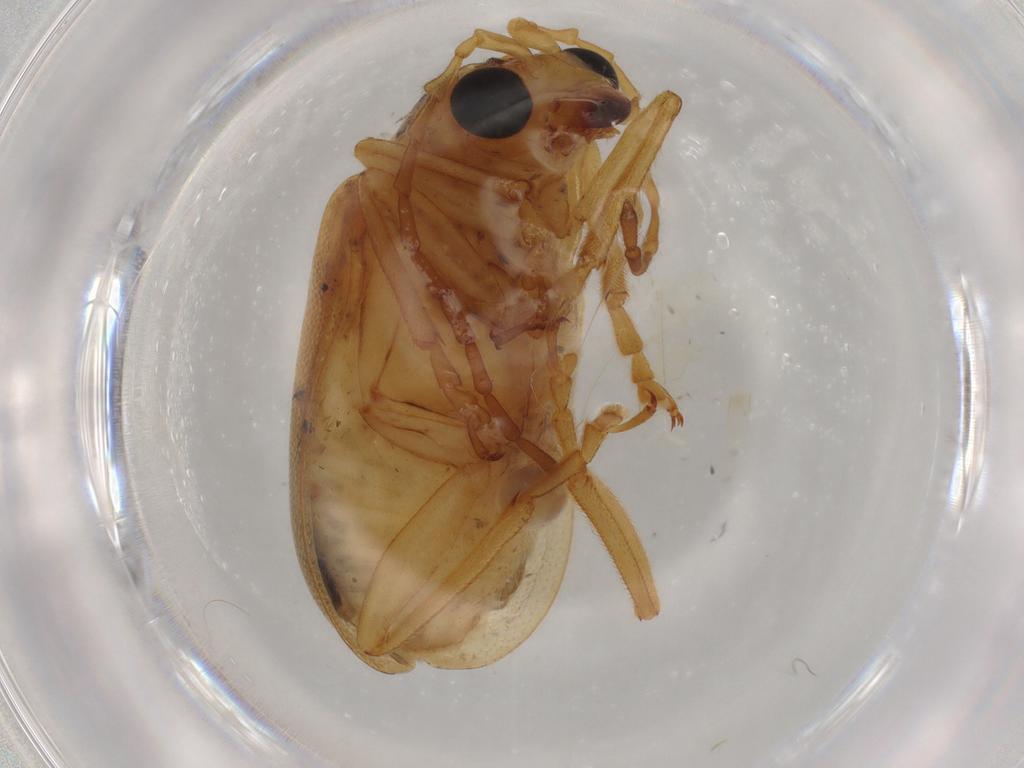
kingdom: Animalia
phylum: Arthropoda
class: Insecta
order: Coleoptera
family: Chrysomelidae
